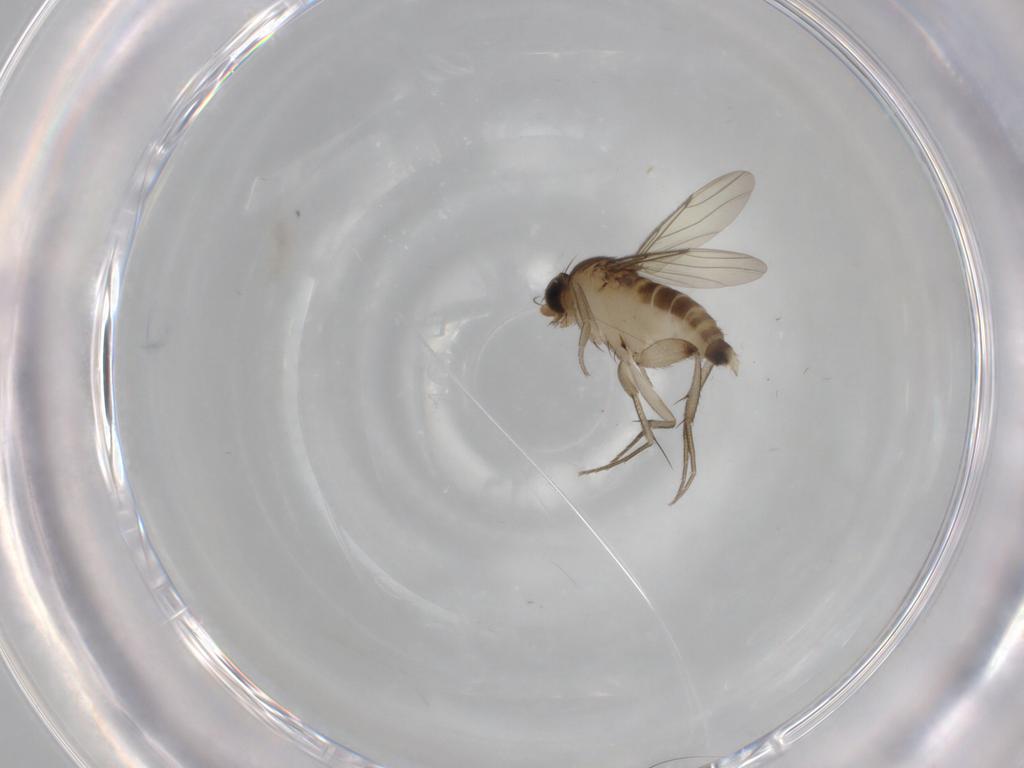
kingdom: Animalia
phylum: Arthropoda
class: Insecta
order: Diptera
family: Phoridae
